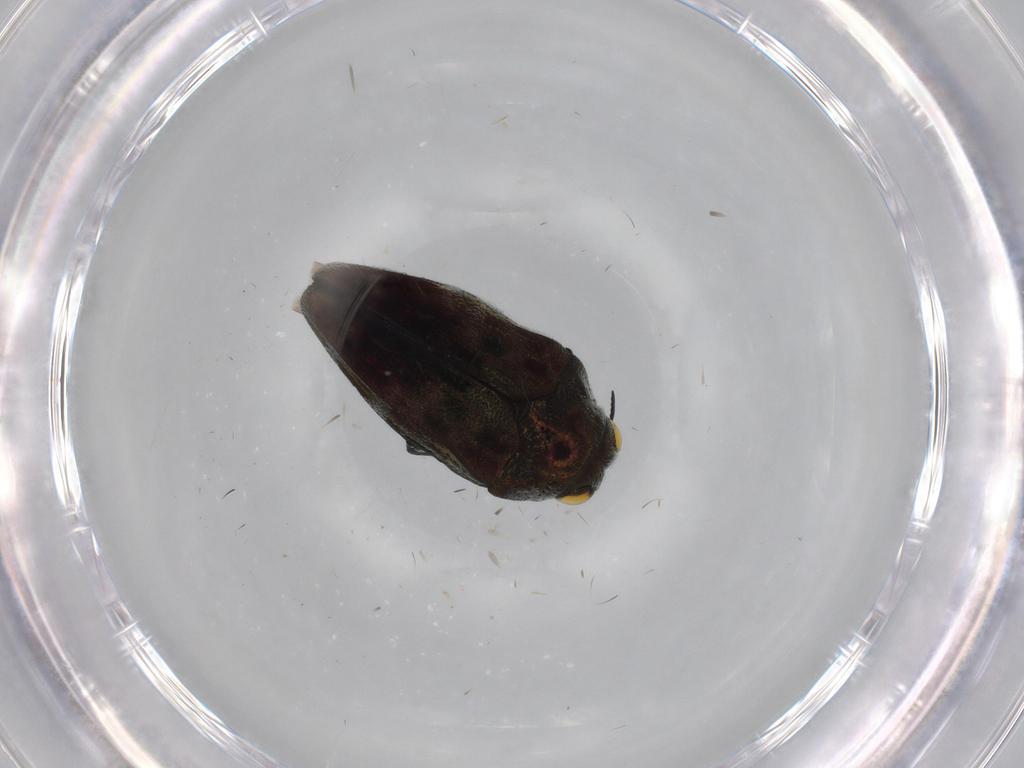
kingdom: Animalia
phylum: Arthropoda
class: Insecta
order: Coleoptera
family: Buprestidae
